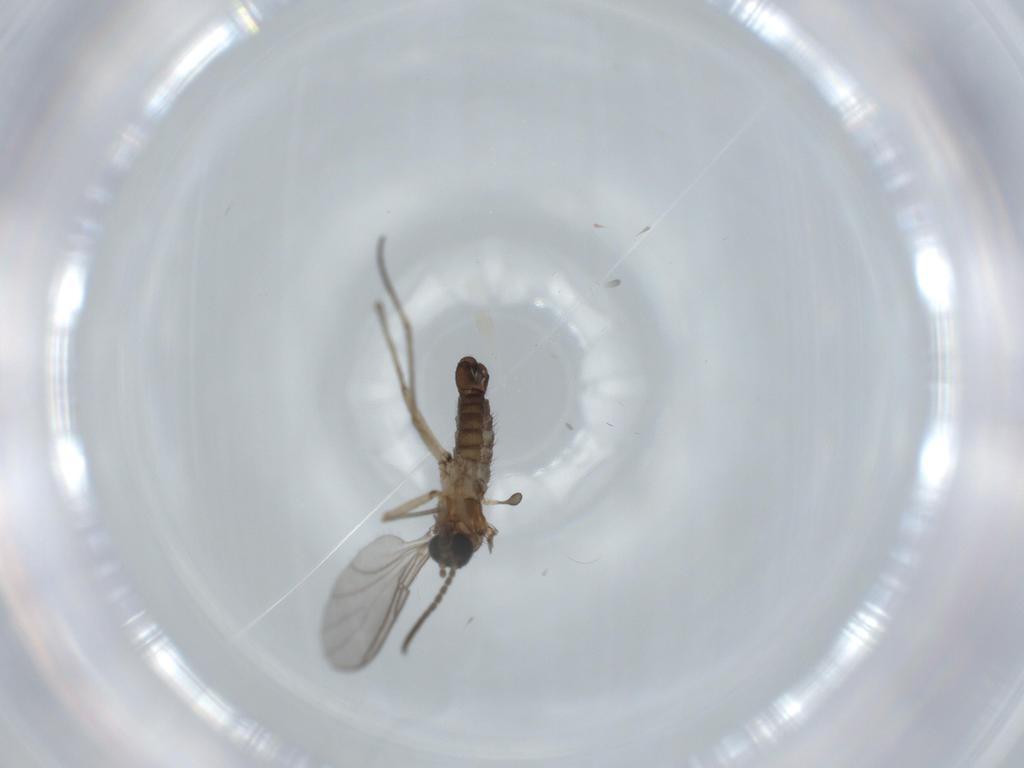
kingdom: Animalia
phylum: Arthropoda
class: Insecta
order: Diptera
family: Sciaridae
